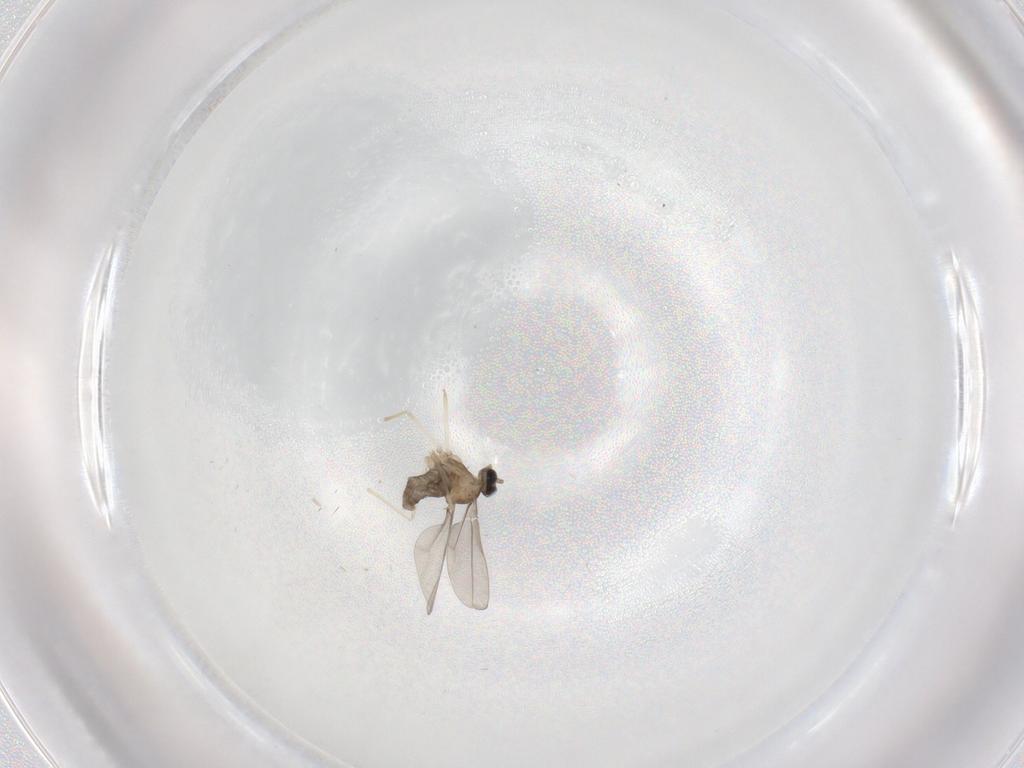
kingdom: Animalia
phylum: Arthropoda
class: Insecta
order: Diptera
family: Cecidomyiidae
